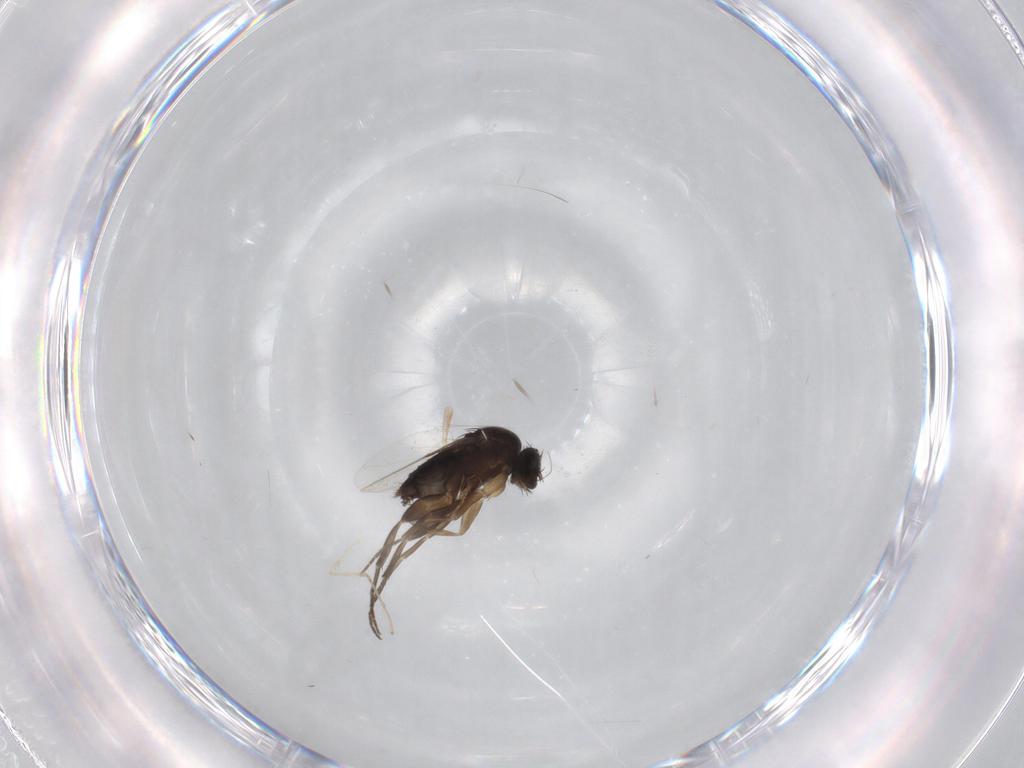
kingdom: Animalia
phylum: Arthropoda
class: Insecta
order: Diptera
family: Phoridae
